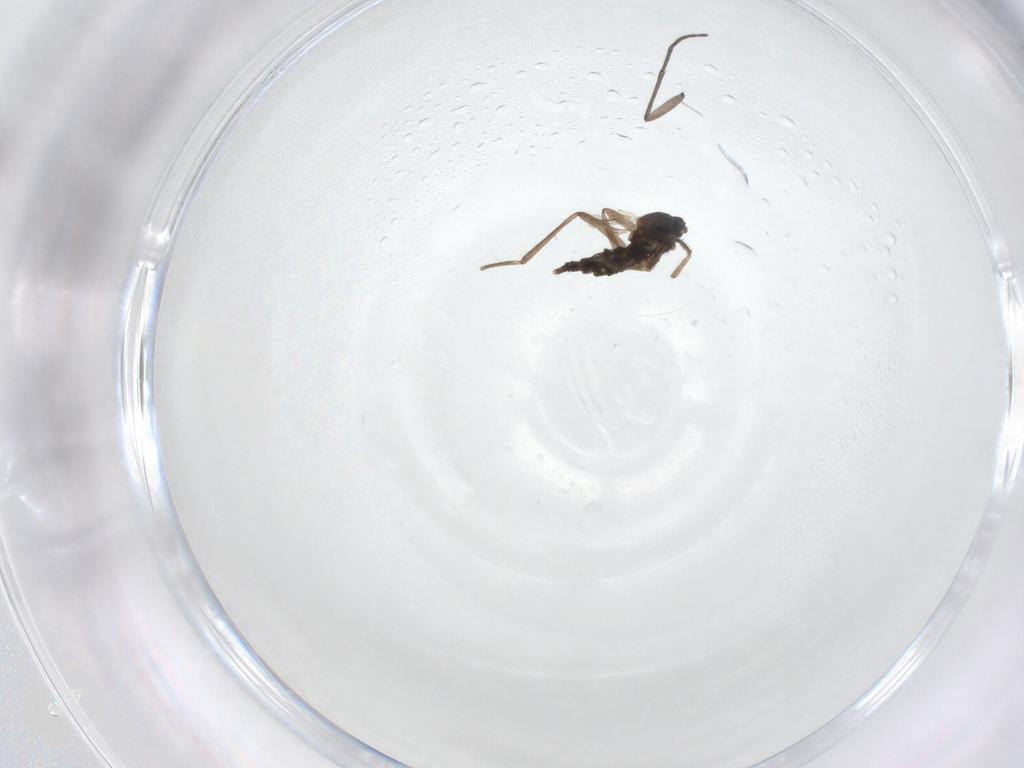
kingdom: Animalia
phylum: Arthropoda
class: Insecta
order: Diptera
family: Cecidomyiidae
